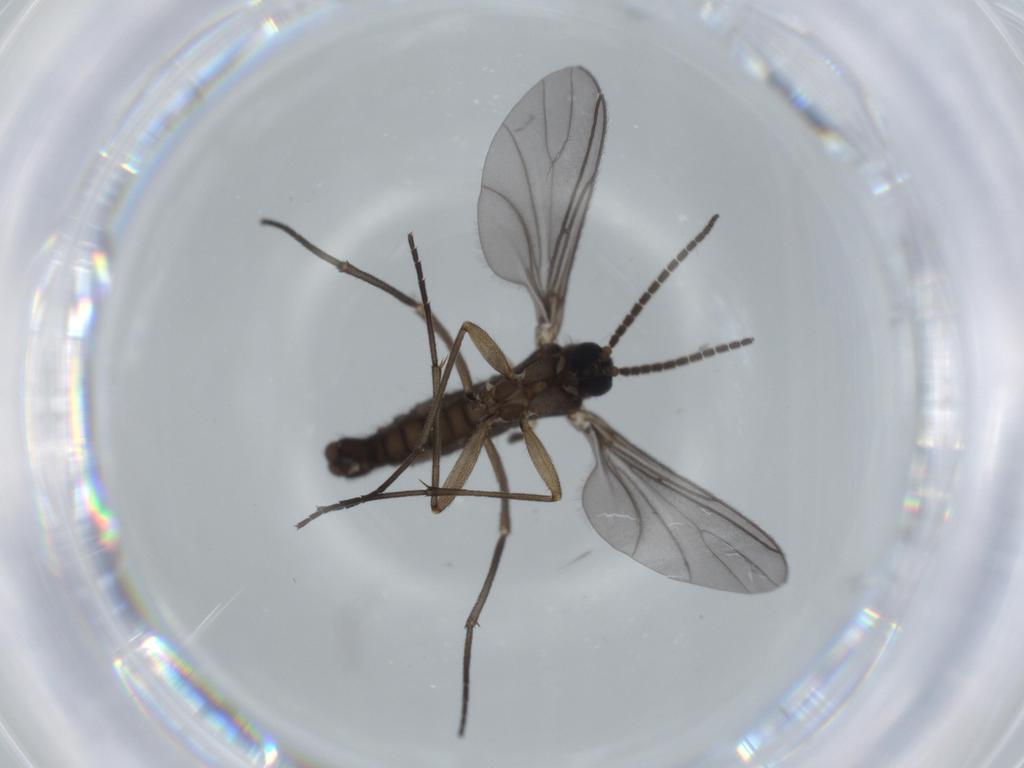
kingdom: Animalia
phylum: Arthropoda
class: Insecta
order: Diptera
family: Sciaridae
